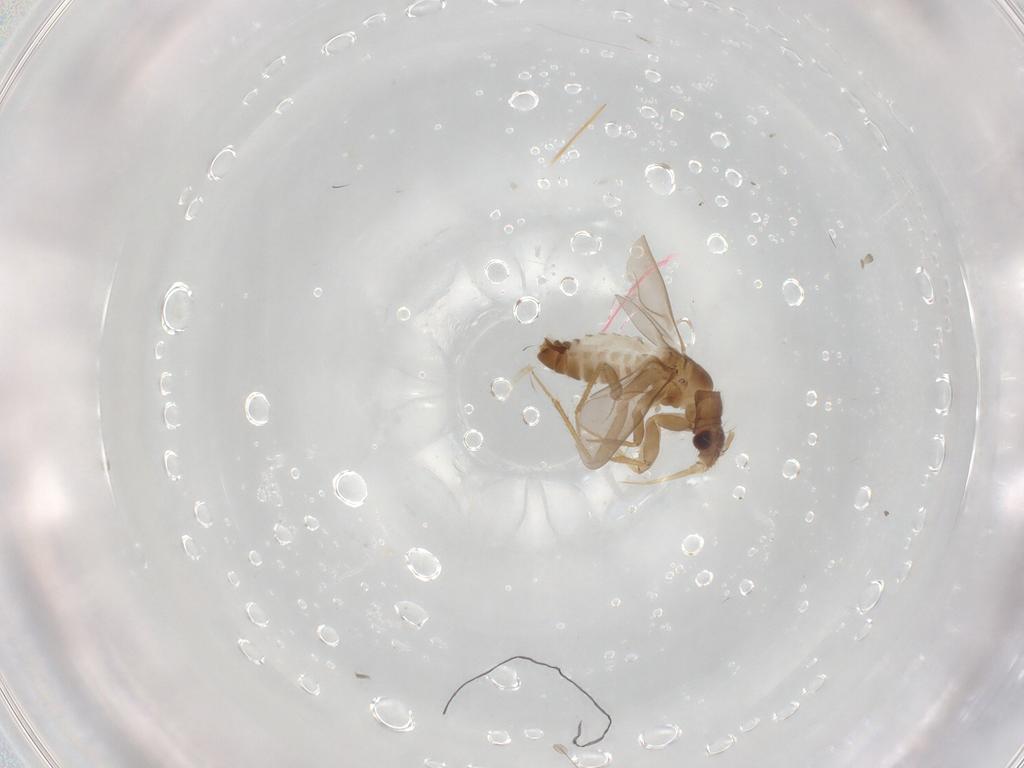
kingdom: Animalia
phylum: Arthropoda
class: Insecta
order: Hemiptera
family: Ceratocombidae
